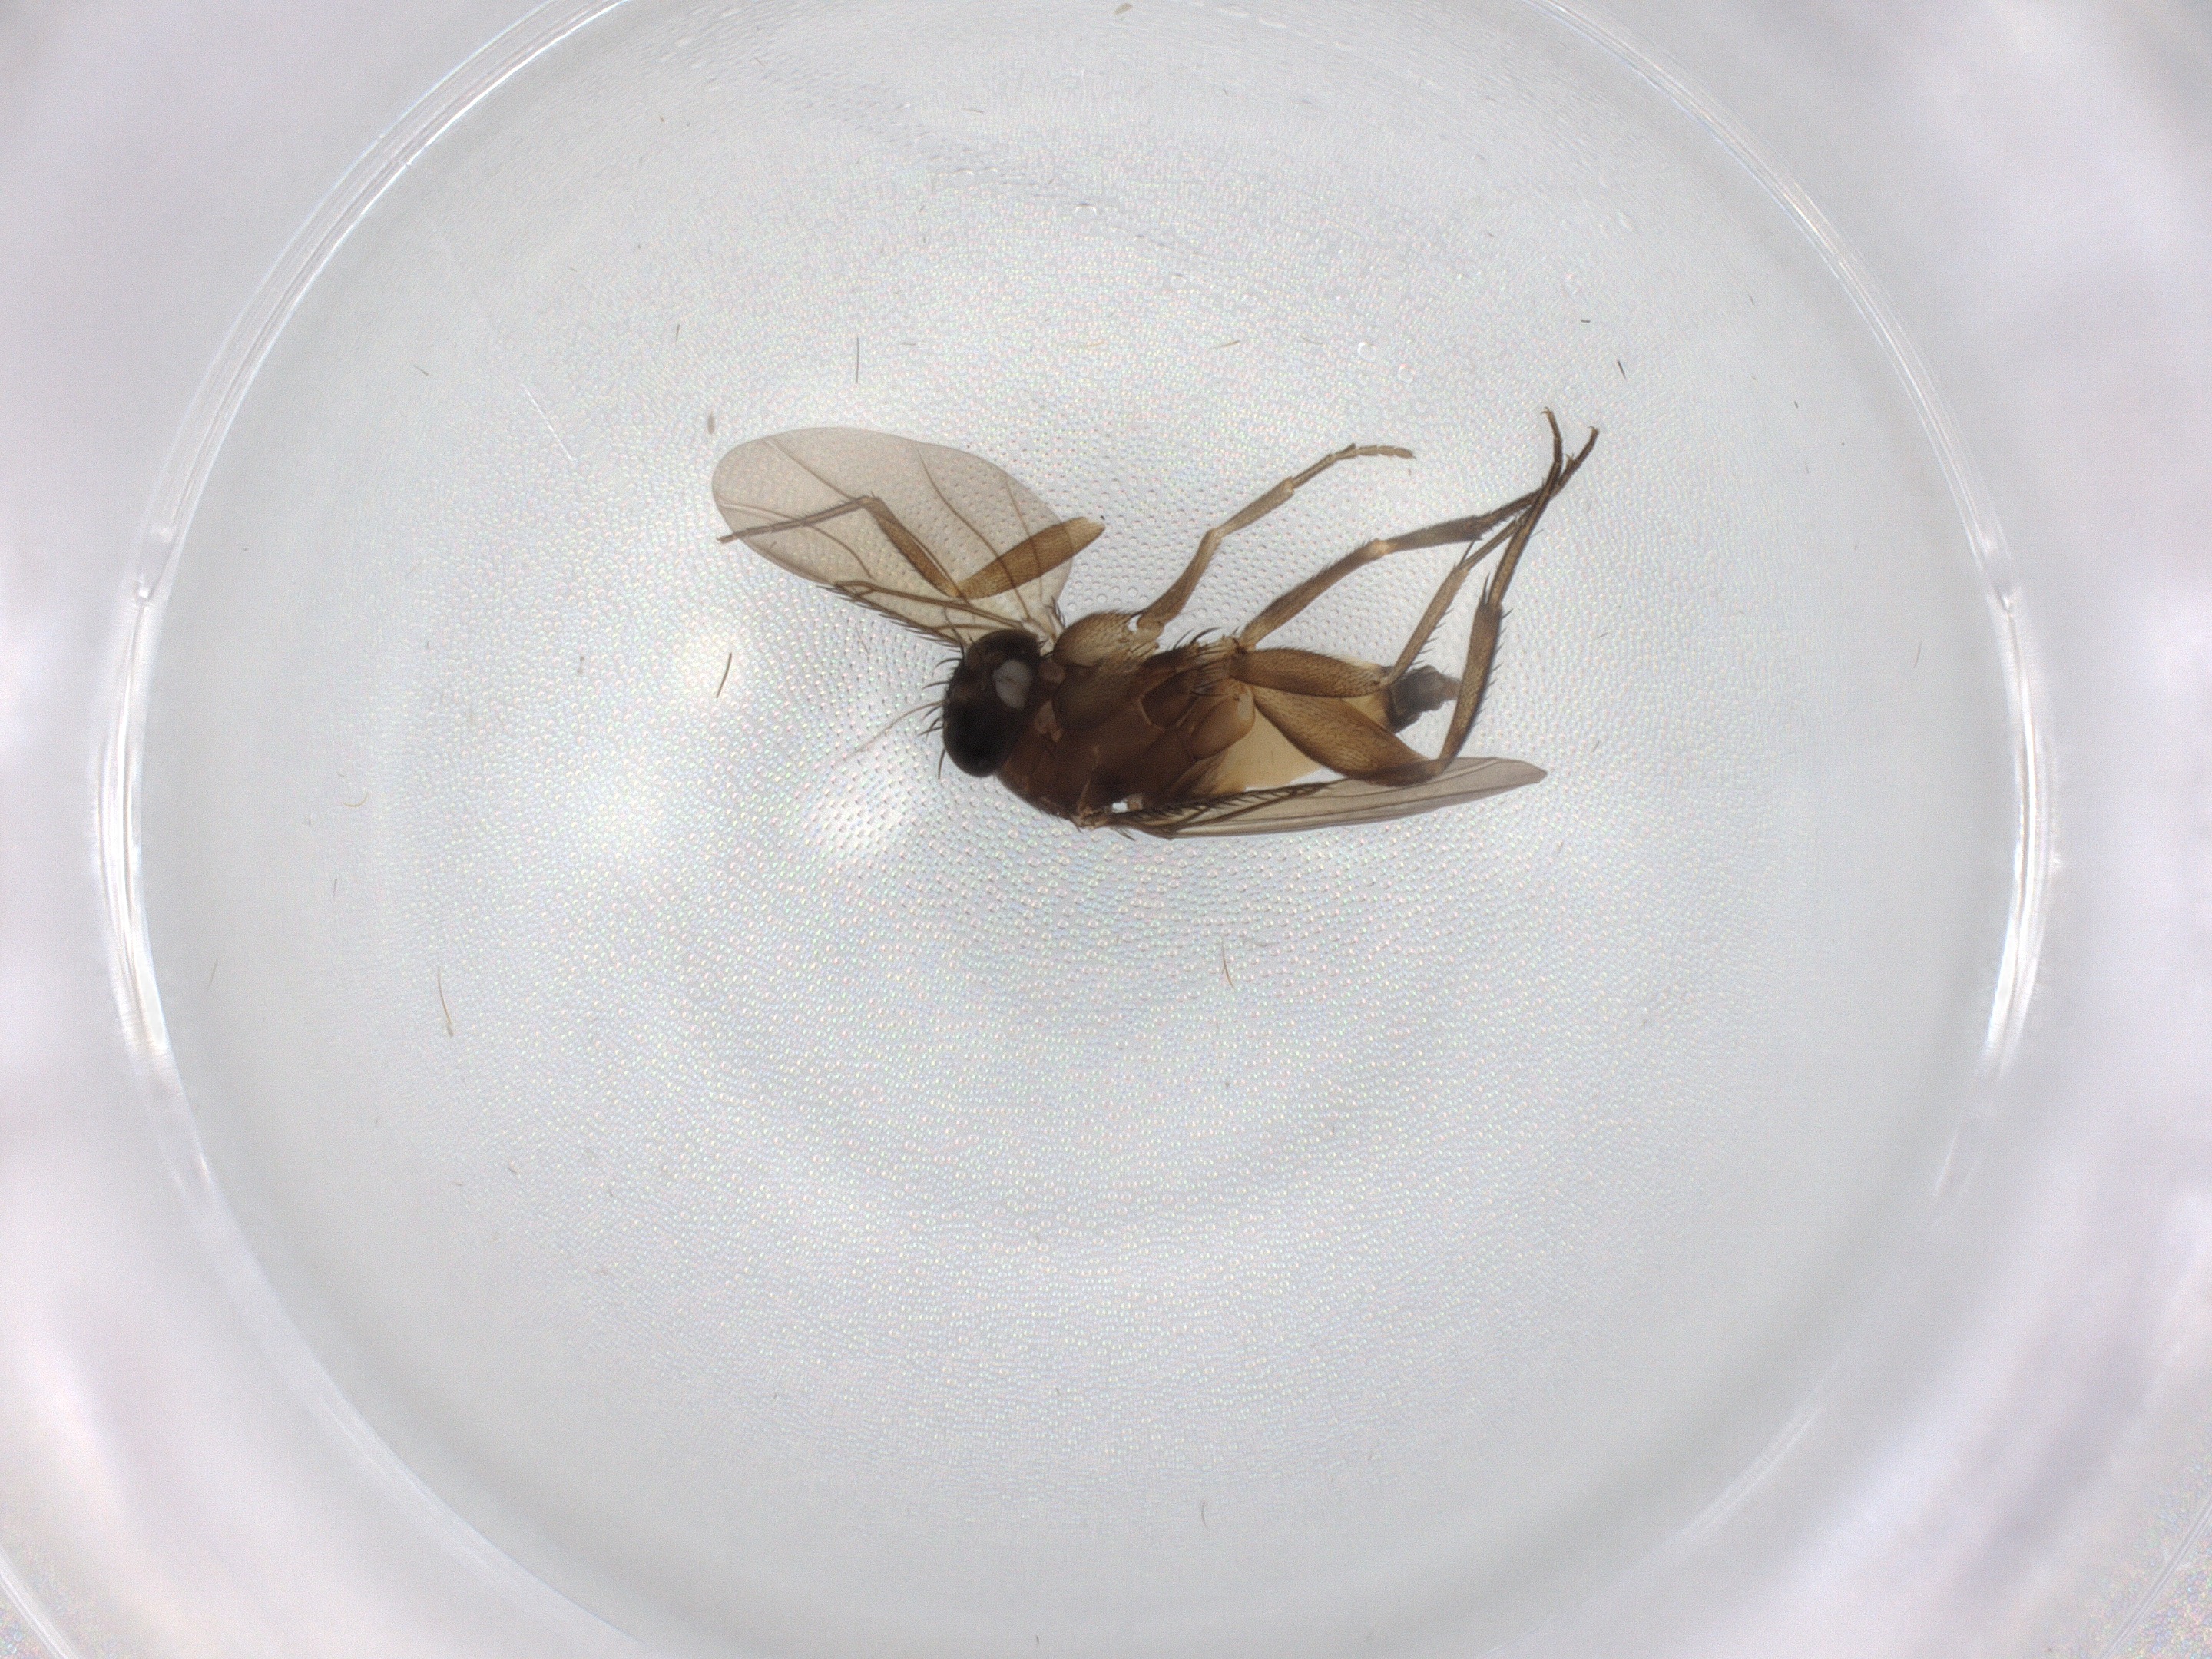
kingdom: Animalia
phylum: Arthropoda
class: Insecta
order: Diptera
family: Phoridae
